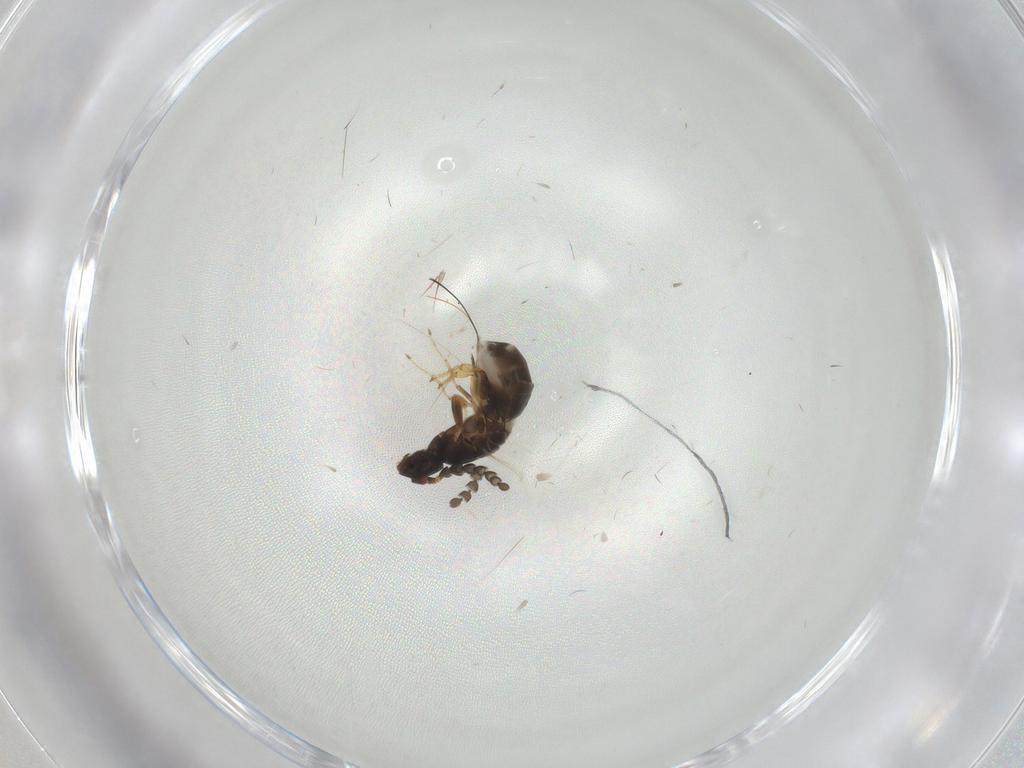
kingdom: Animalia
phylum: Arthropoda
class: Insecta
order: Hymenoptera
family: Agaonidae
